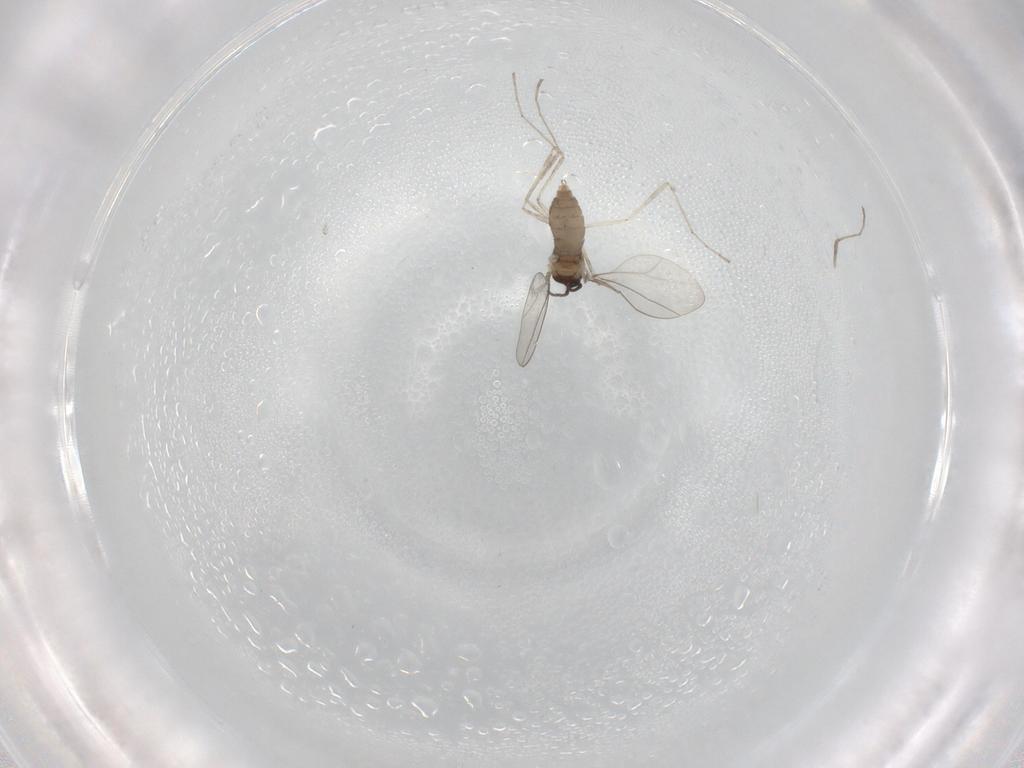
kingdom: Animalia
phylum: Arthropoda
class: Insecta
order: Diptera
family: Cecidomyiidae
